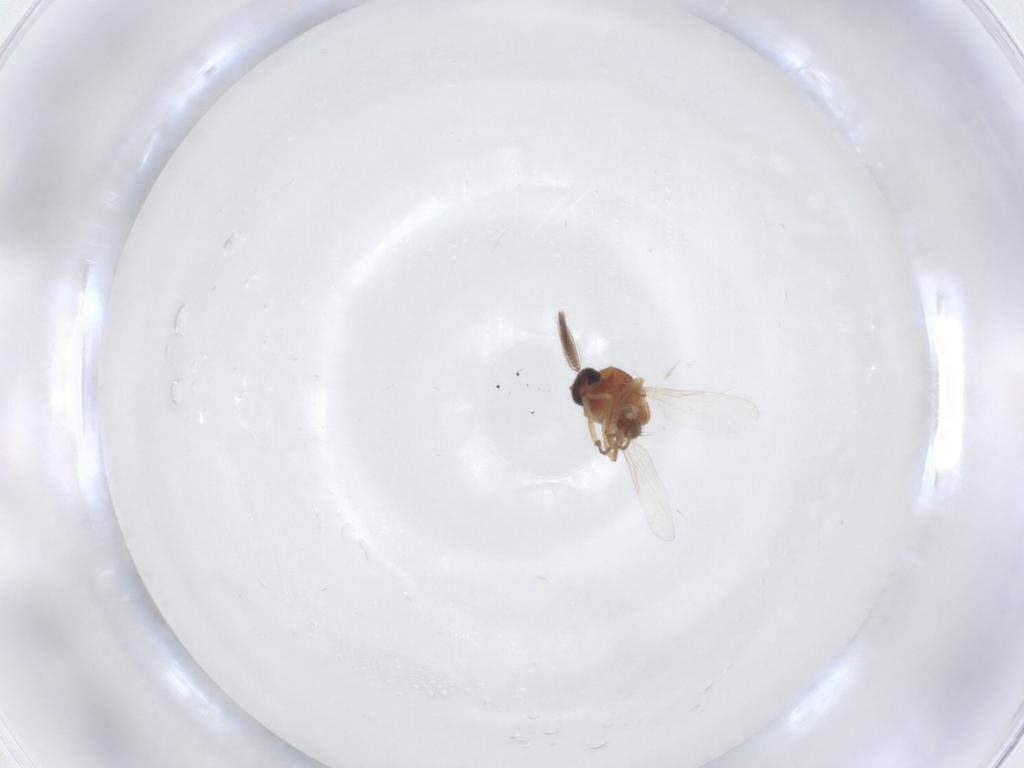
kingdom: Animalia
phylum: Arthropoda
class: Insecta
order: Diptera
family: Ceratopogonidae
